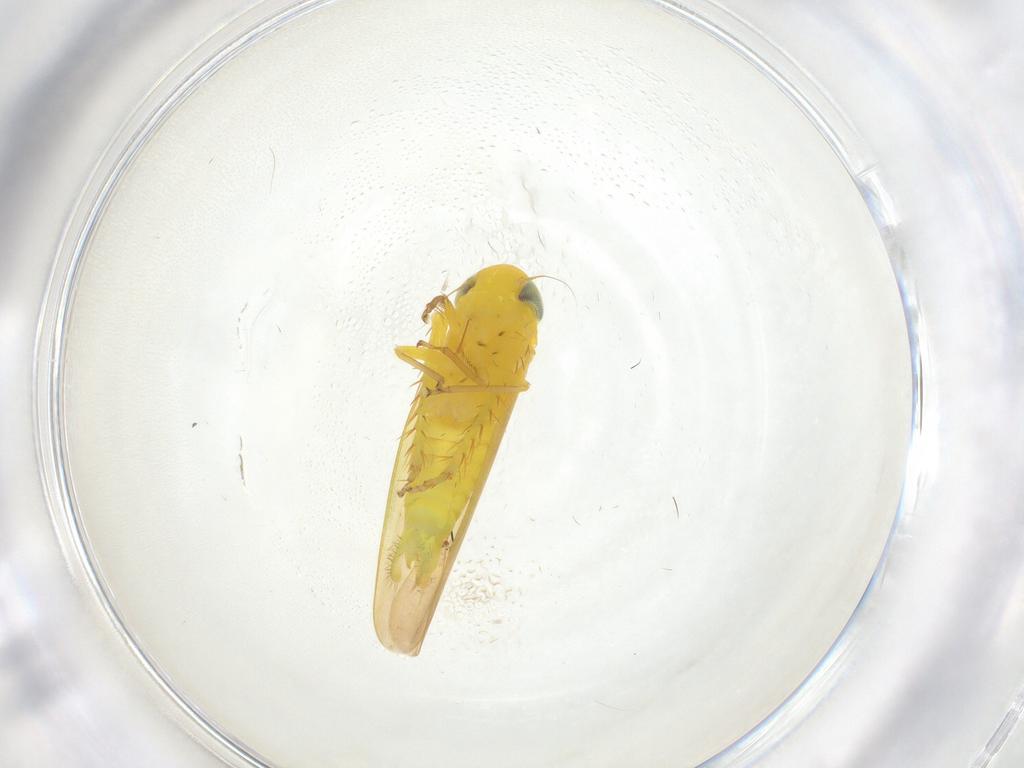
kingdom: Animalia
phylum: Arthropoda
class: Insecta
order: Hemiptera
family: Cicadellidae
